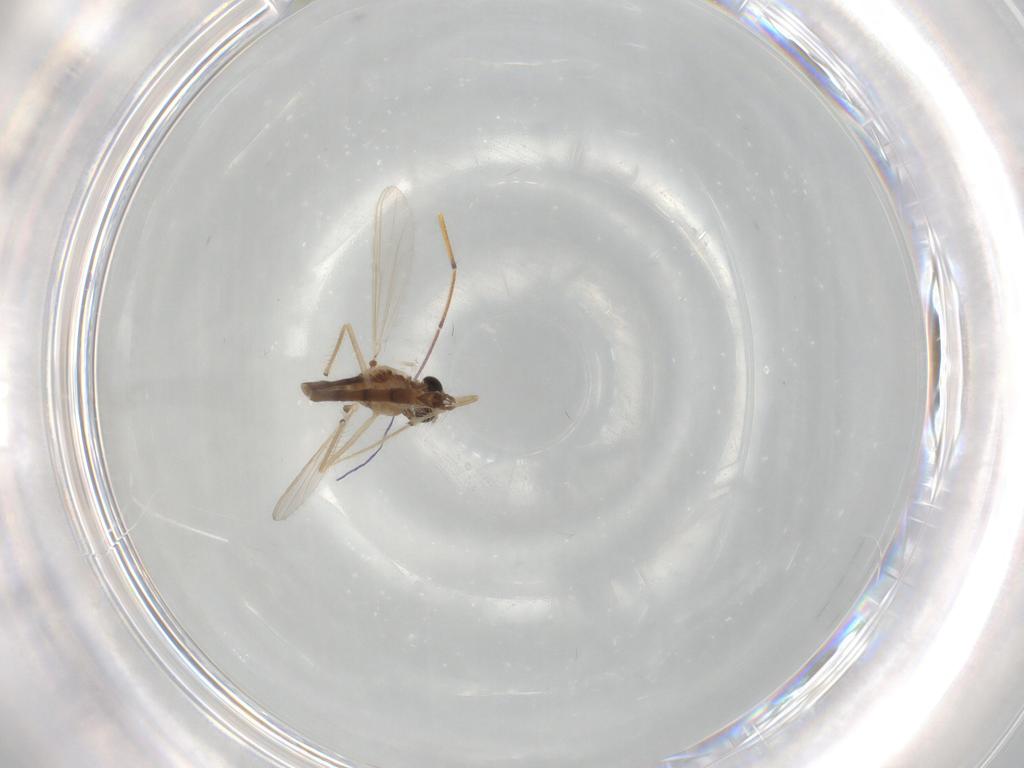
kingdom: Animalia
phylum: Arthropoda
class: Insecta
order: Diptera
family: Chironomidae
